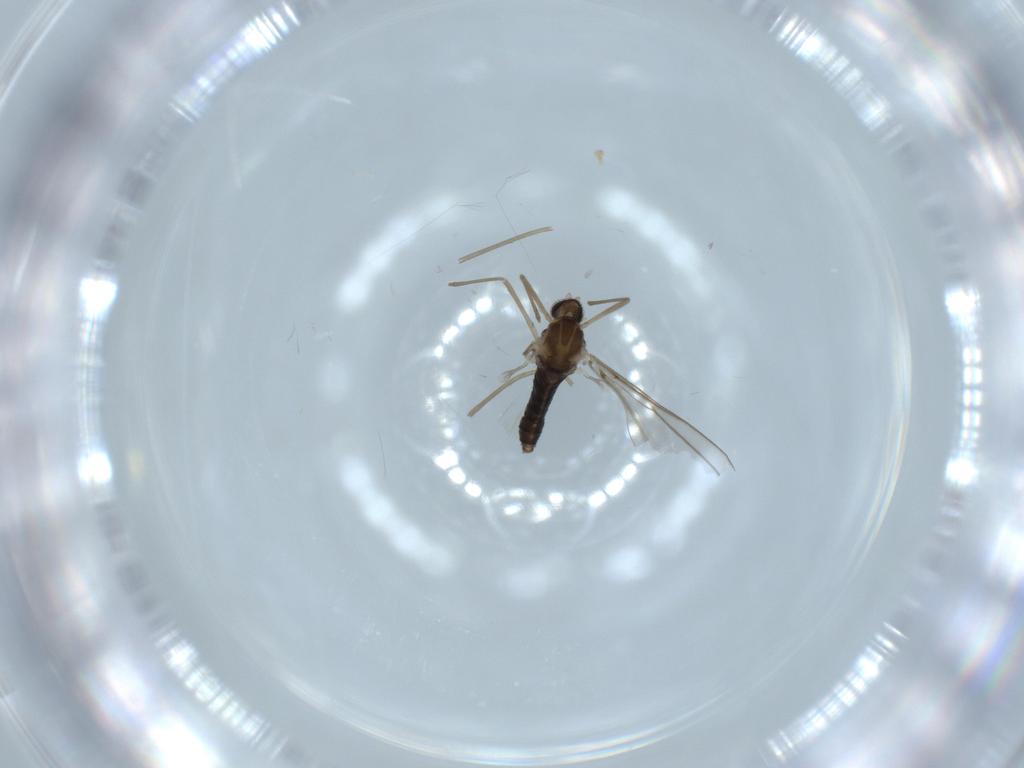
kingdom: Animalia
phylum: Arthropoda
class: Insecta
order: Diptera
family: Cecidomyiidae
